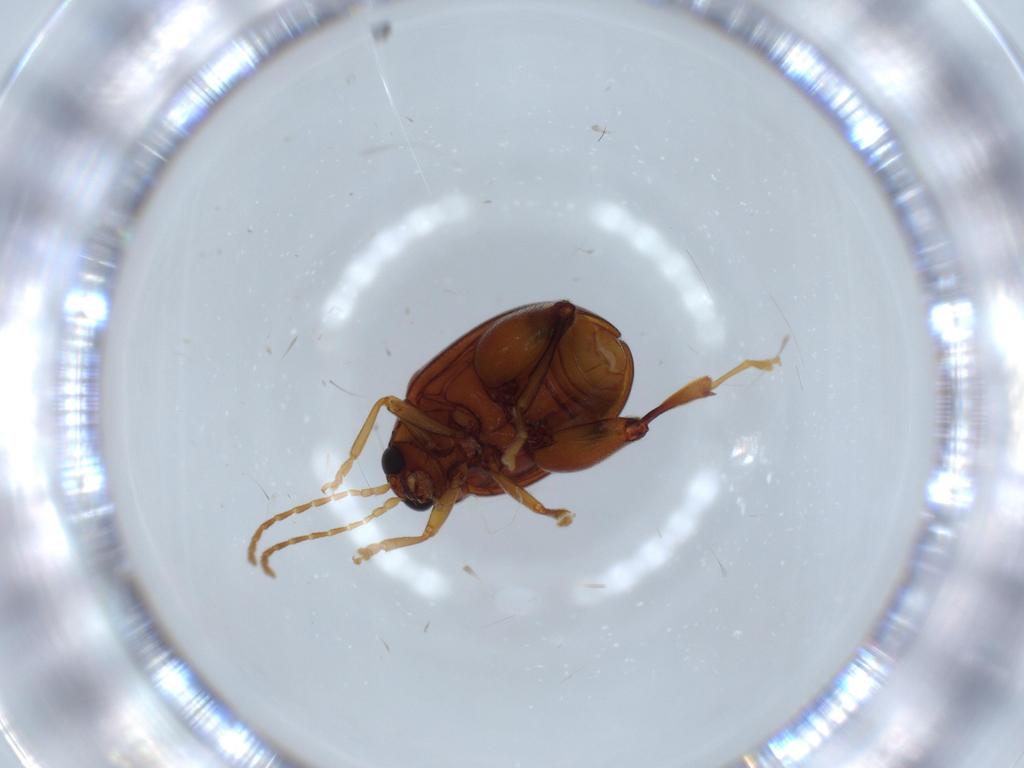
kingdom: Animalia
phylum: Arthropoda
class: Insecta
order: Coleoptera
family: Chrysomelidae
